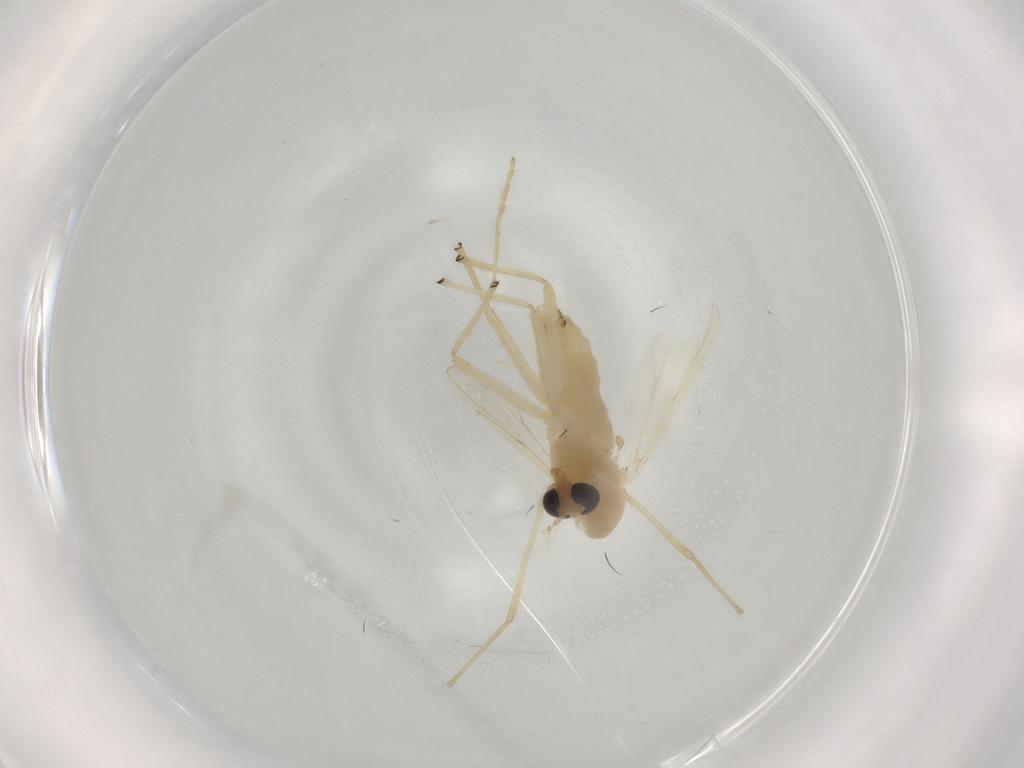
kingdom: Animalia
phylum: Arthropoda
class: Insecta
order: Diptera
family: Chironomidae
